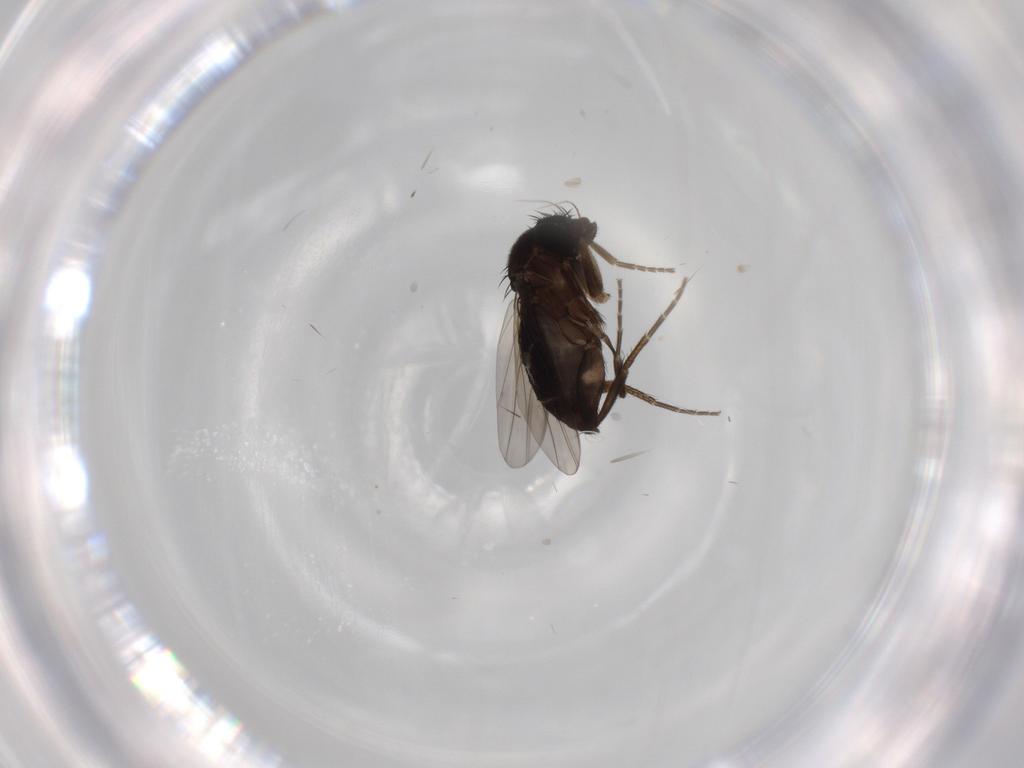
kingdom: Animalia
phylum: Arthropoda
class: Insecta
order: Diptera
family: Phoridae
